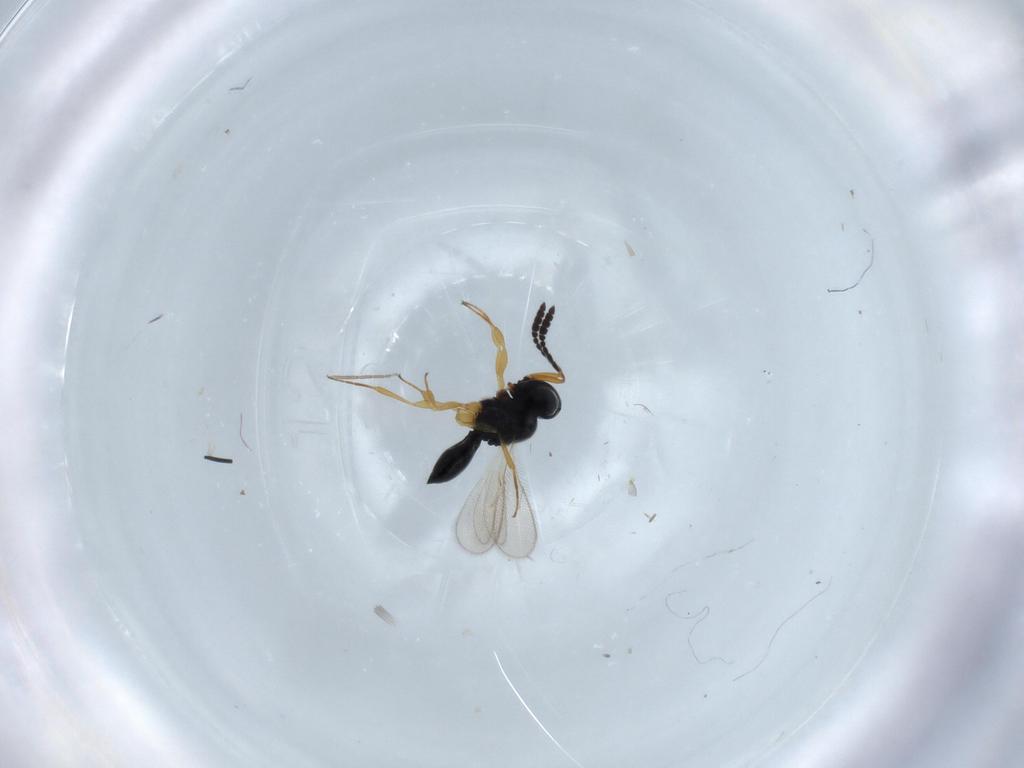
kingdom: Animalia
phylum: Arthropoda
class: Insecta
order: Hymenoptera
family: Scelionidae
